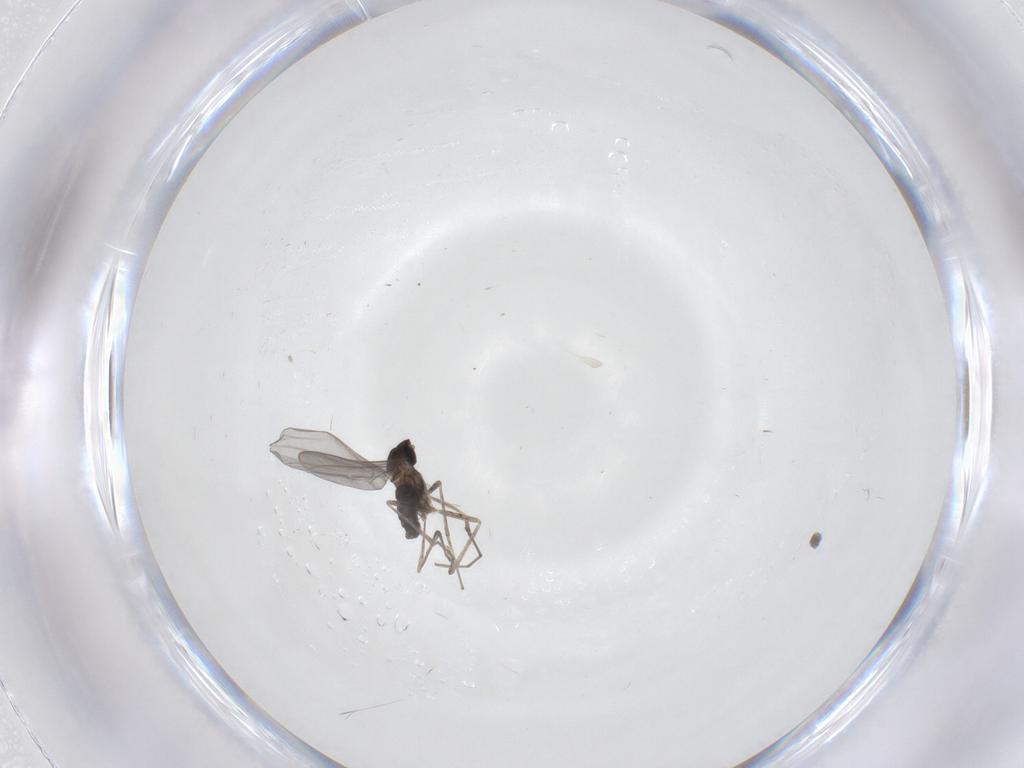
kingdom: Animalia
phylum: Arthropoda
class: Insecta
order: Diptera
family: Cecidomyiidae
